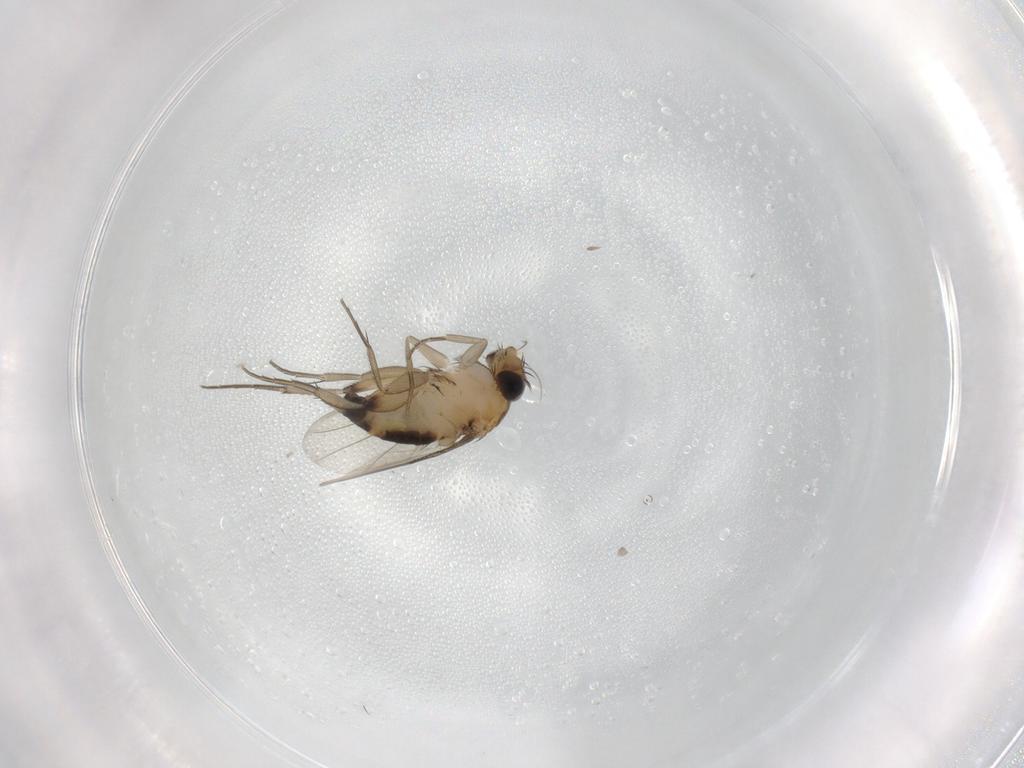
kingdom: Animalia
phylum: Arthropoda
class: Insecta
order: Diptera
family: Phoridae
